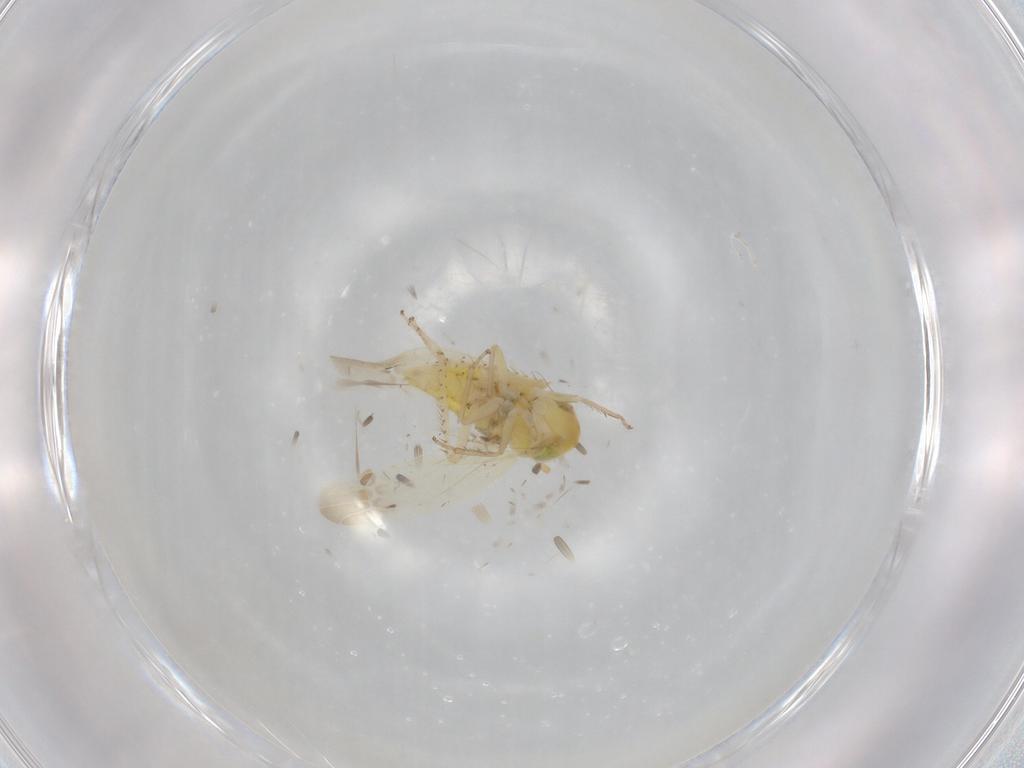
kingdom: Animalia
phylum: Arthropoda
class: Insecta
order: Hemiptera
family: Cicadellidae
